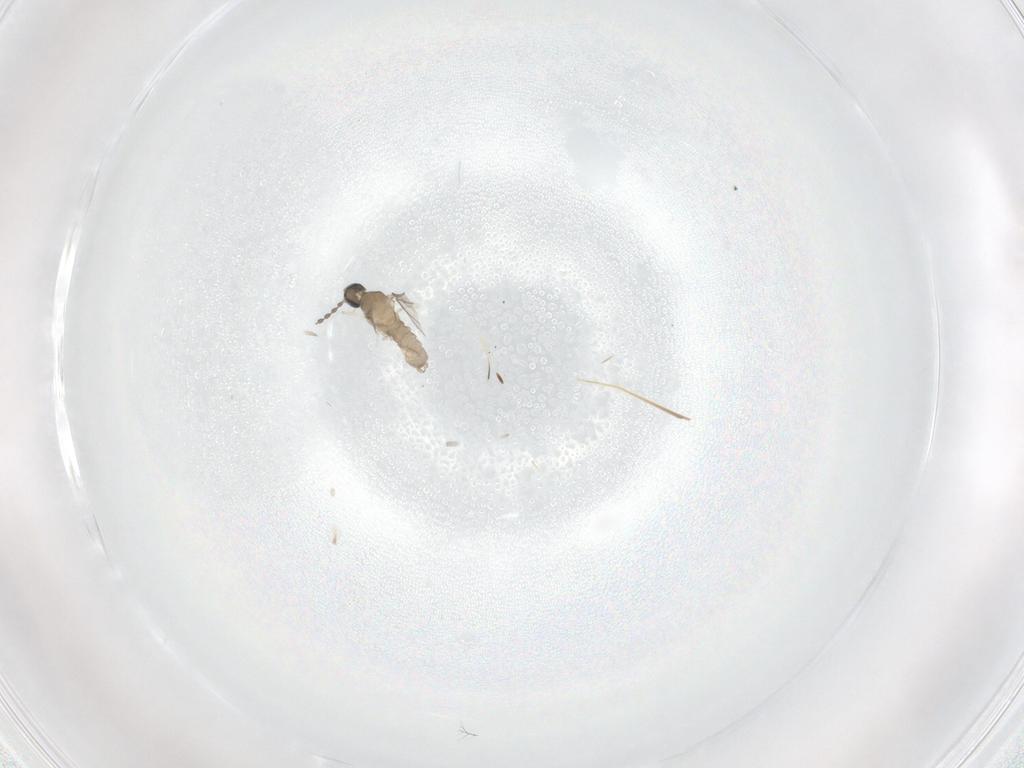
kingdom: Animalia
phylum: Arthropoda
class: Insecta
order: Diptera
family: Cecidomyiidae
